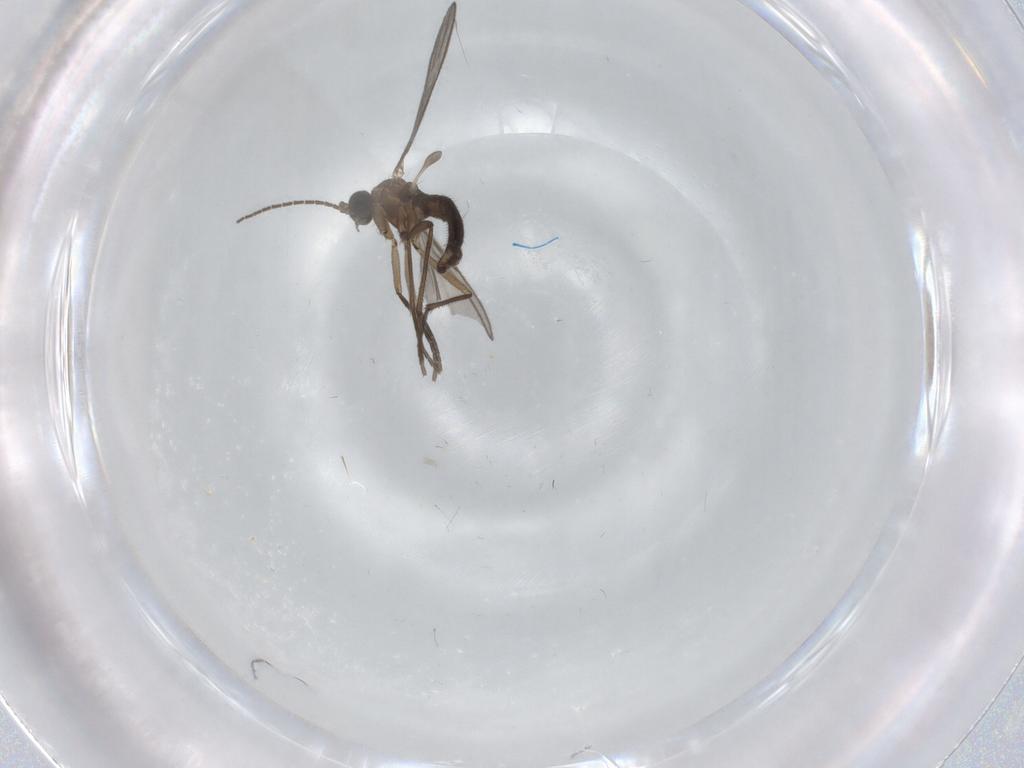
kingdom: Animalia
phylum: Arthropoda
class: Insecta
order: Diptera
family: Sciaridae
